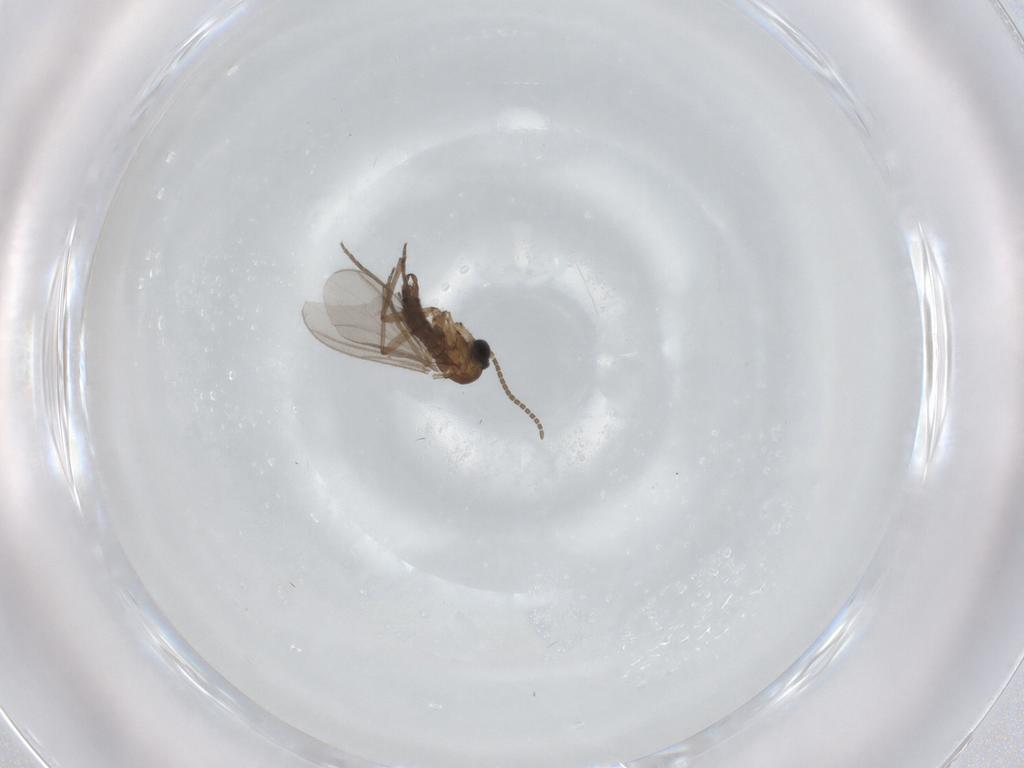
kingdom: Animalia
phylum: Arthropoda
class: Insecta
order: Diptera
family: Sciaridae
